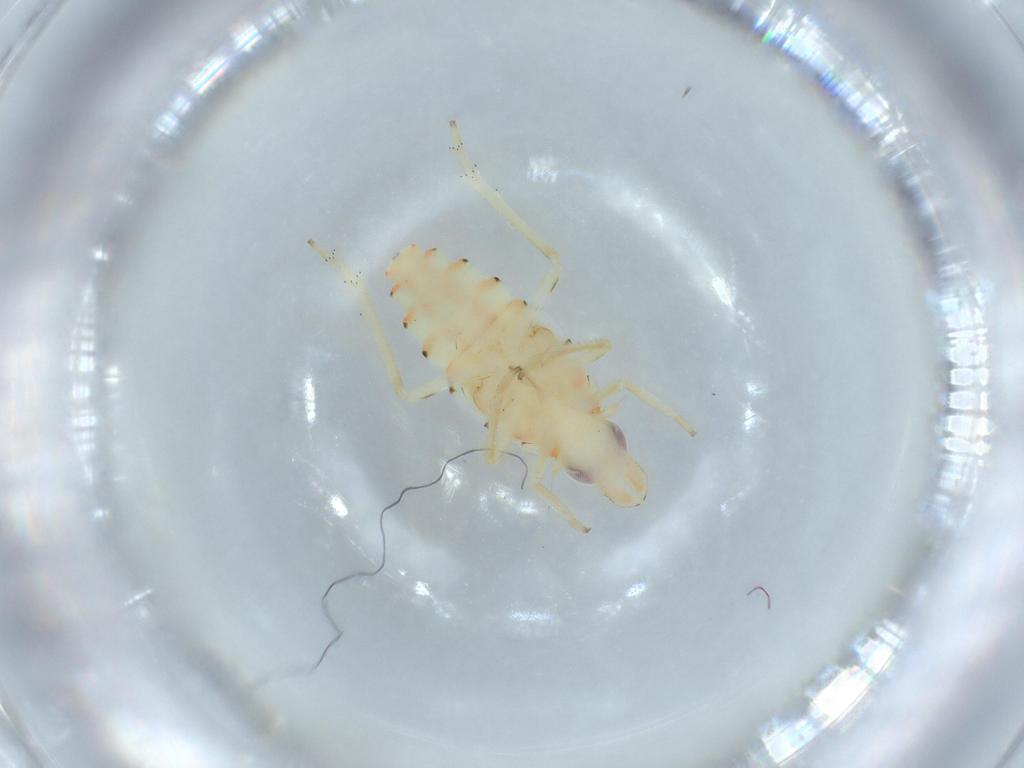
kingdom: Animalia
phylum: Arthropoda
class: Insecta
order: Hemiptera
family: Tropiduchidae
